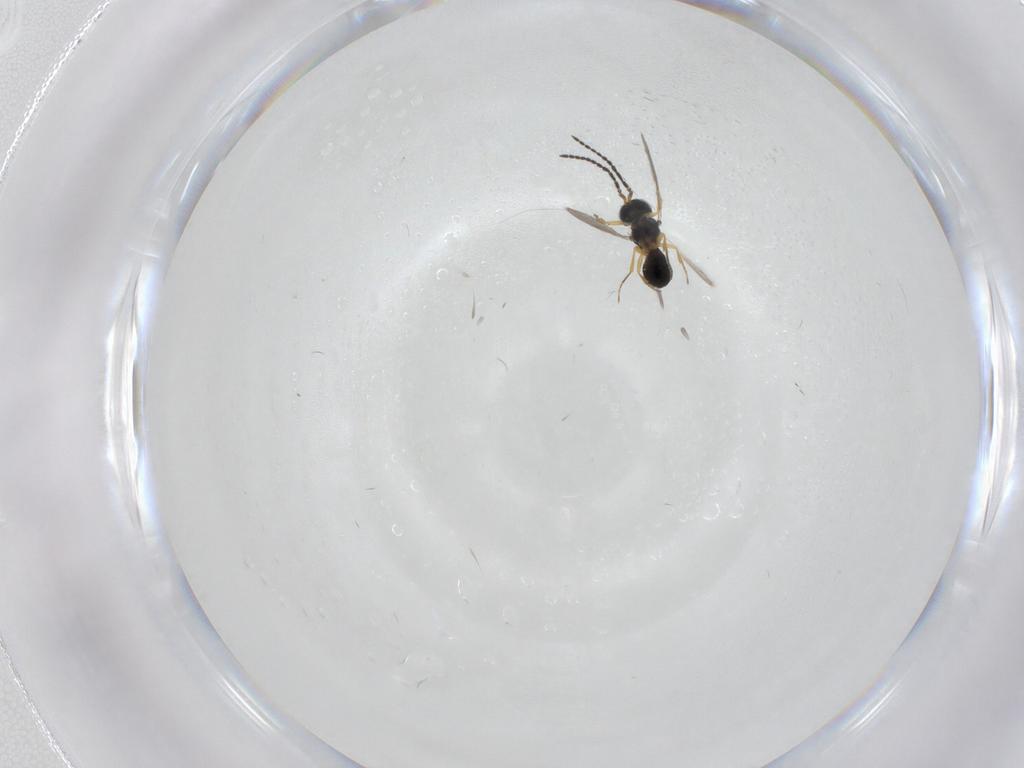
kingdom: Animalia
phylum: Arthropoda
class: Insecta
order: Hymenoptera
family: Scelionidae
